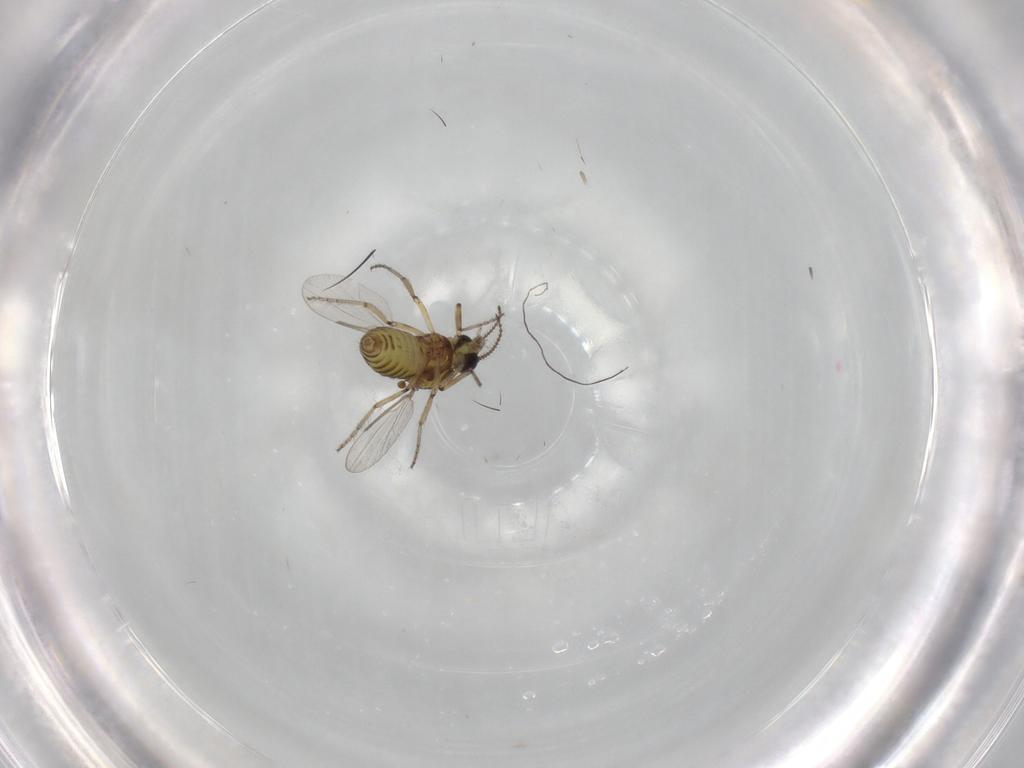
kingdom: Animalia
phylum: Arthropoda
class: Insecta
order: Diptera
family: Ceratopogonidae
